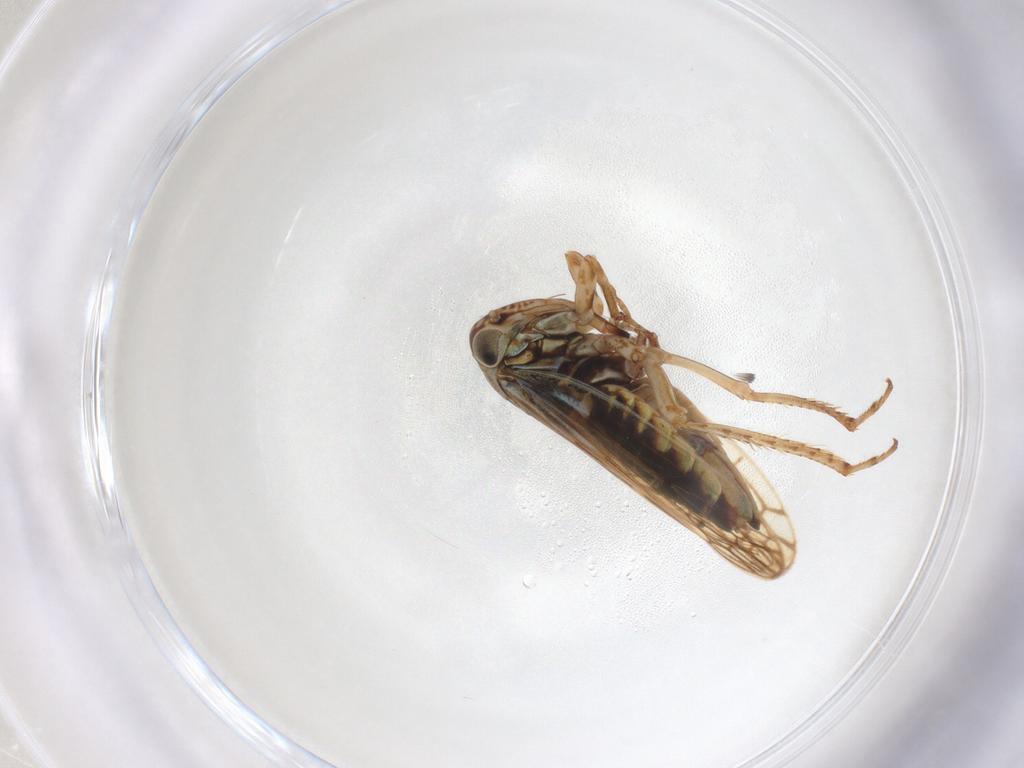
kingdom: Animalia
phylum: Arthropoda
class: Insecta
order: Hemiptera
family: Cicadellidae
